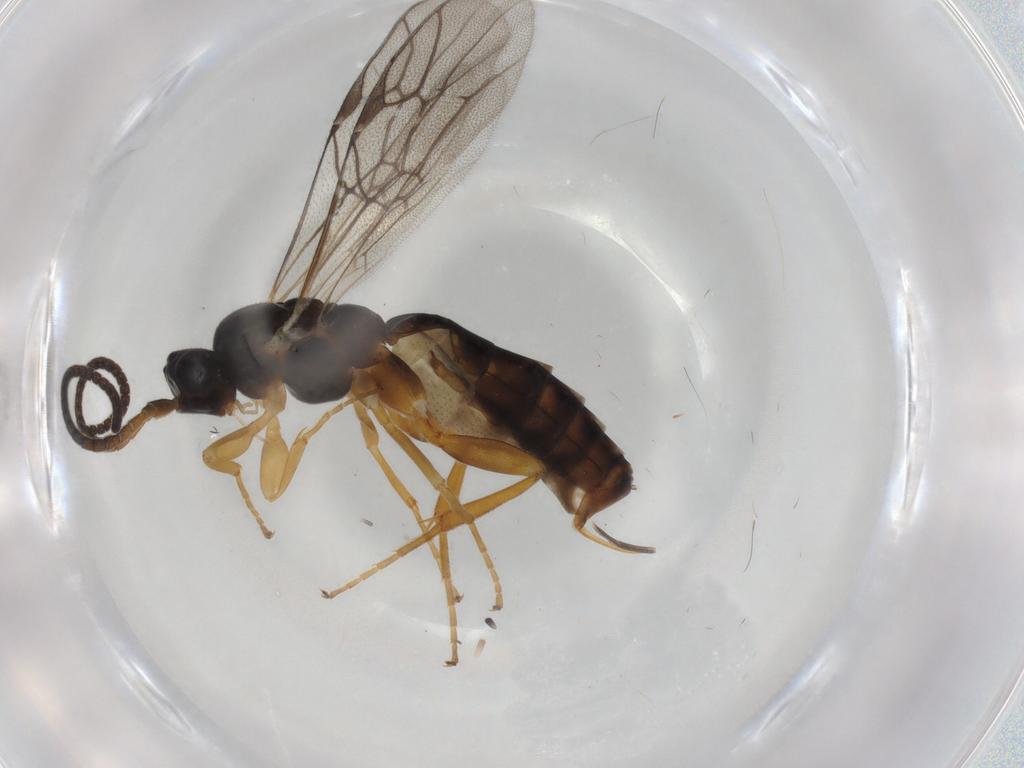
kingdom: Animalia
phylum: Arthropoda
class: Insecta
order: Hymenoptera
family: Ichneumonidae
